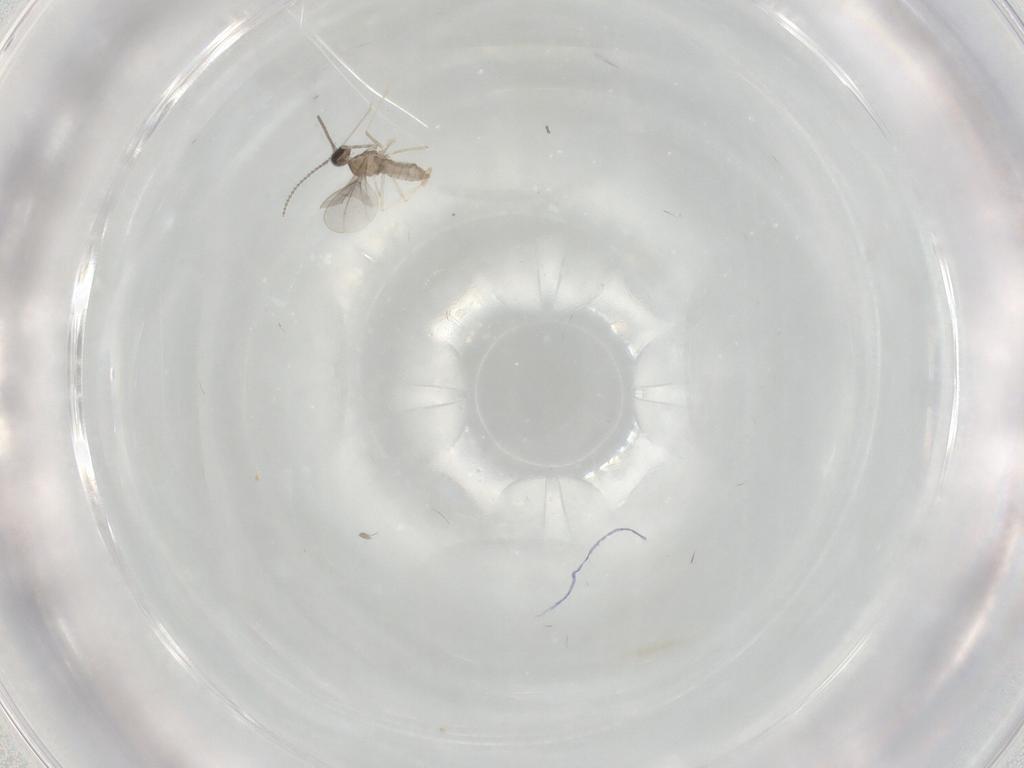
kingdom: Animalia
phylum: Arthropoda
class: Insecta
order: Diptera
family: Cecidomyiidae
